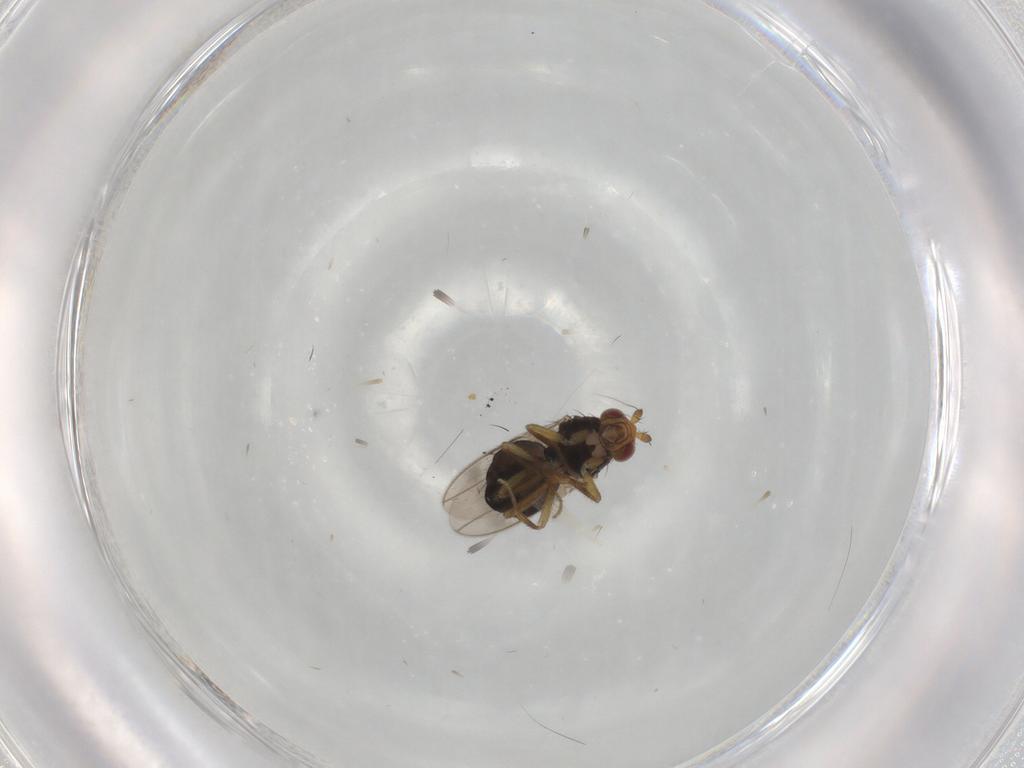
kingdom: Animalia
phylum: Arthropoda
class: Insecta
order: Diptera
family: Sphaeroceridae
